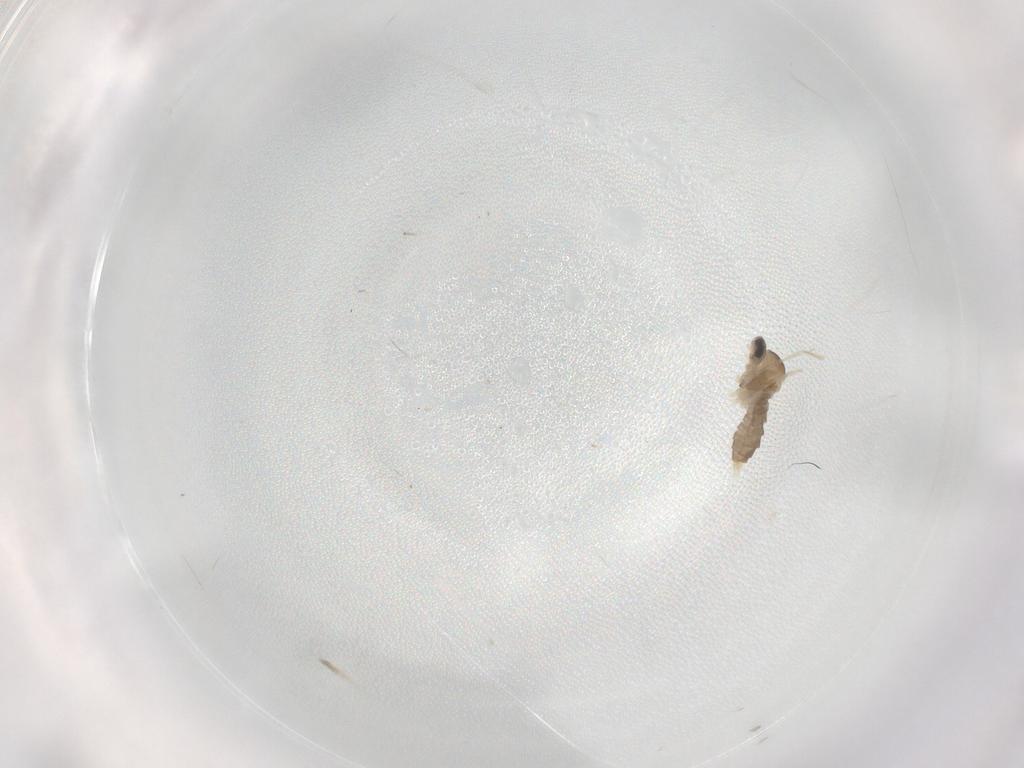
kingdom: Animalia
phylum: Arthropoda
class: Insecta
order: Diptera
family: Cecidomyiidae
